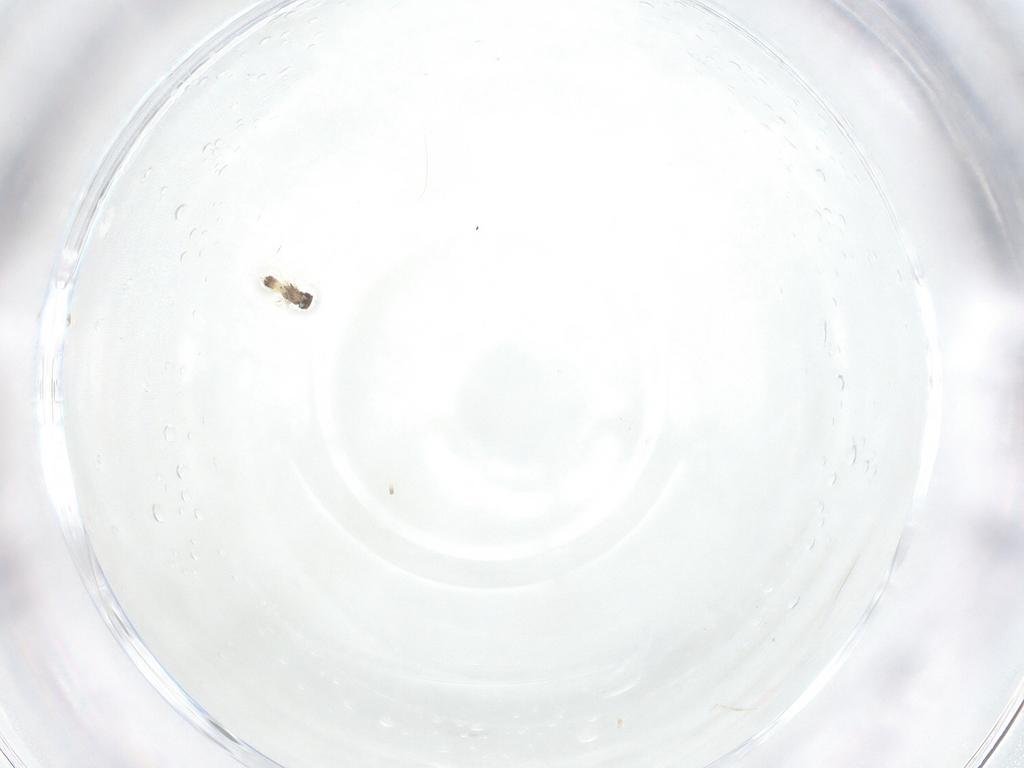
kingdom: Animalia
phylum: Arthropoda
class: Insecta
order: Hymenoptera
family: Mymaridae
